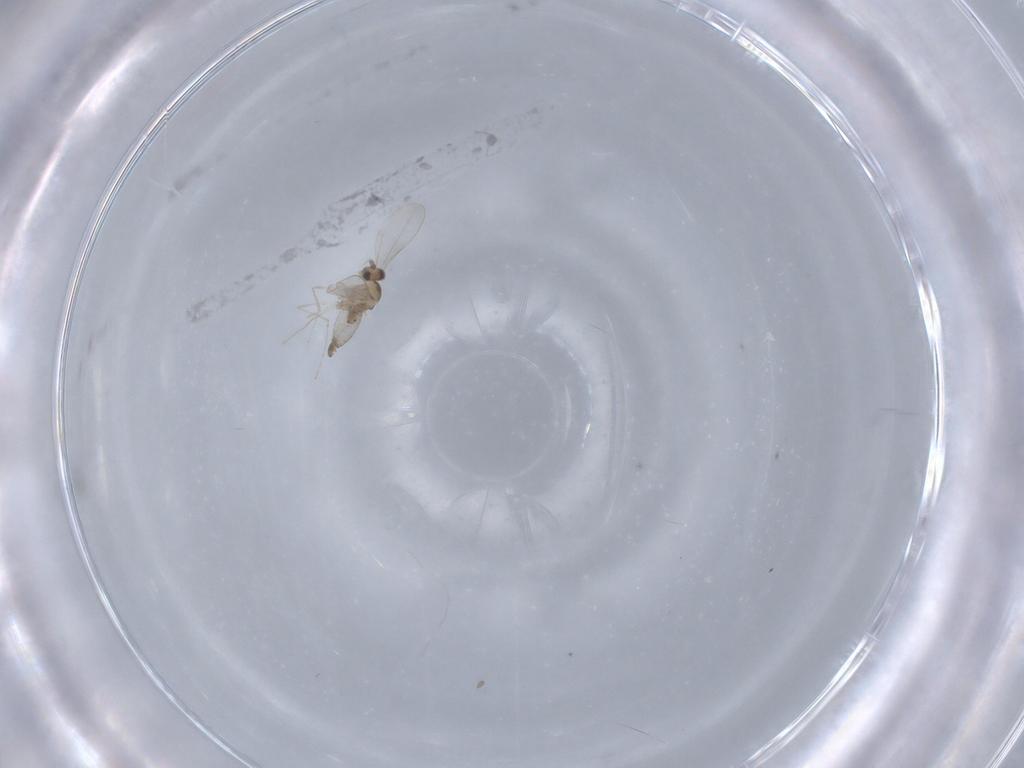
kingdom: Animalia
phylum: Arthropoda
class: Insecta
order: Diptera
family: Cecidomyiidae
